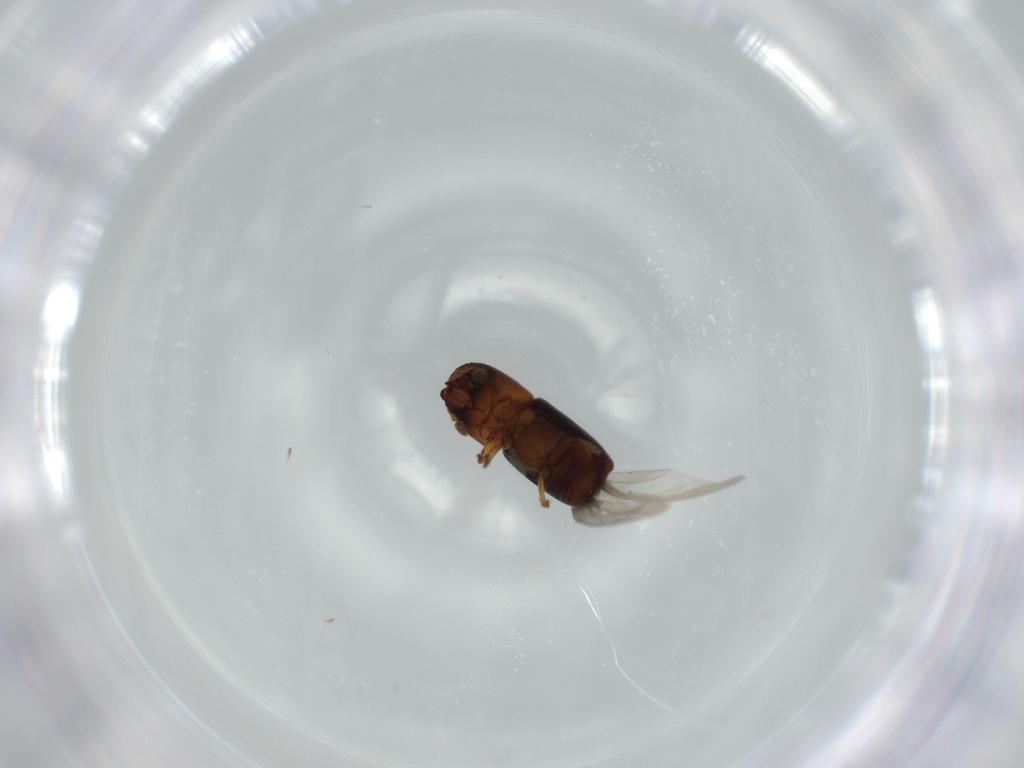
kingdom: Animalia
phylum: Arthropoda
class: Insecta
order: Coleoptera
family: Curculionidae
